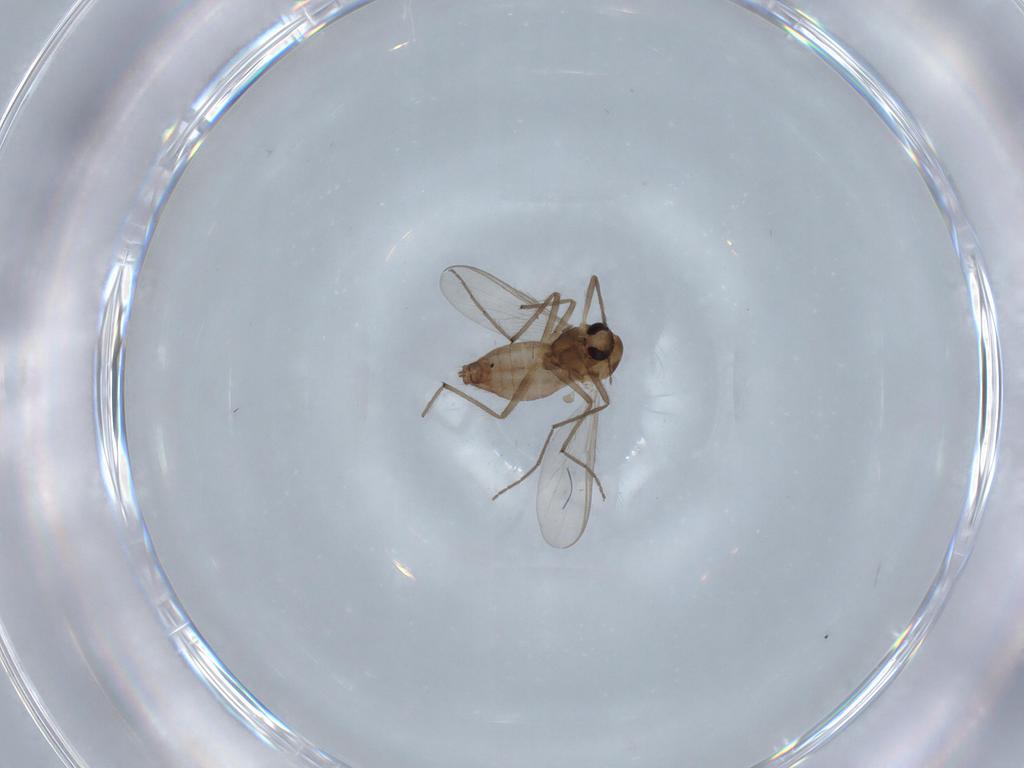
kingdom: Animalia
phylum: Arthropoda
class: Insecta
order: Diptera
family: Chironomidae
